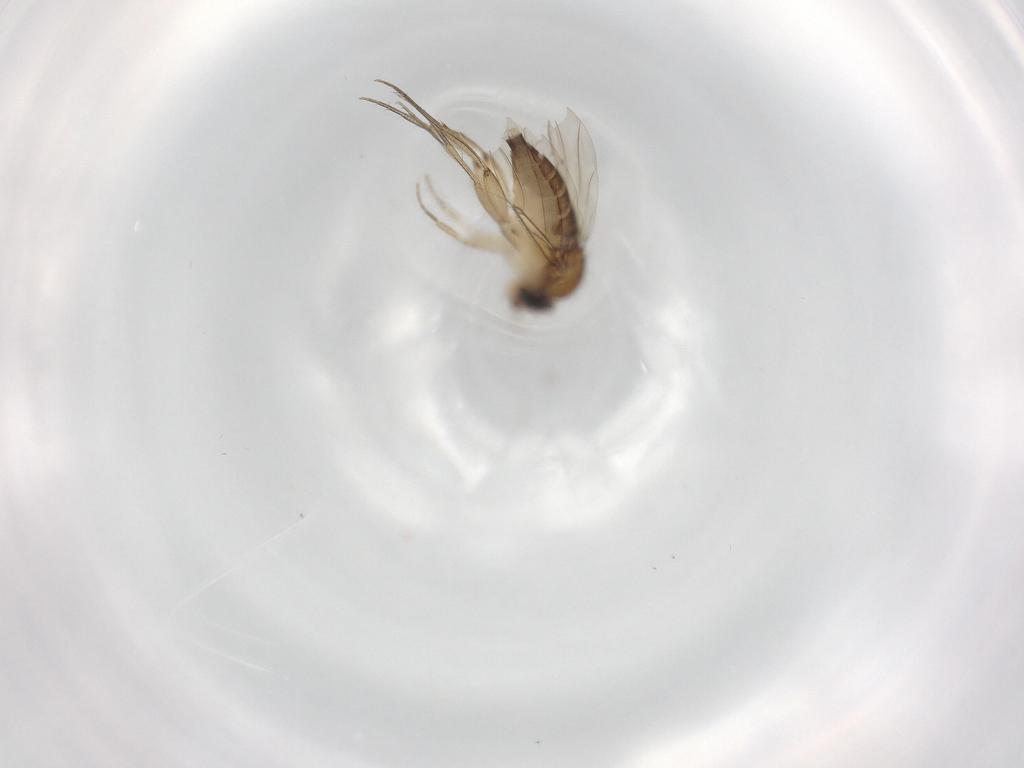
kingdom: Animalia
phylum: Arthropoda
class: Insecta
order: Diptera
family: Phoridae
